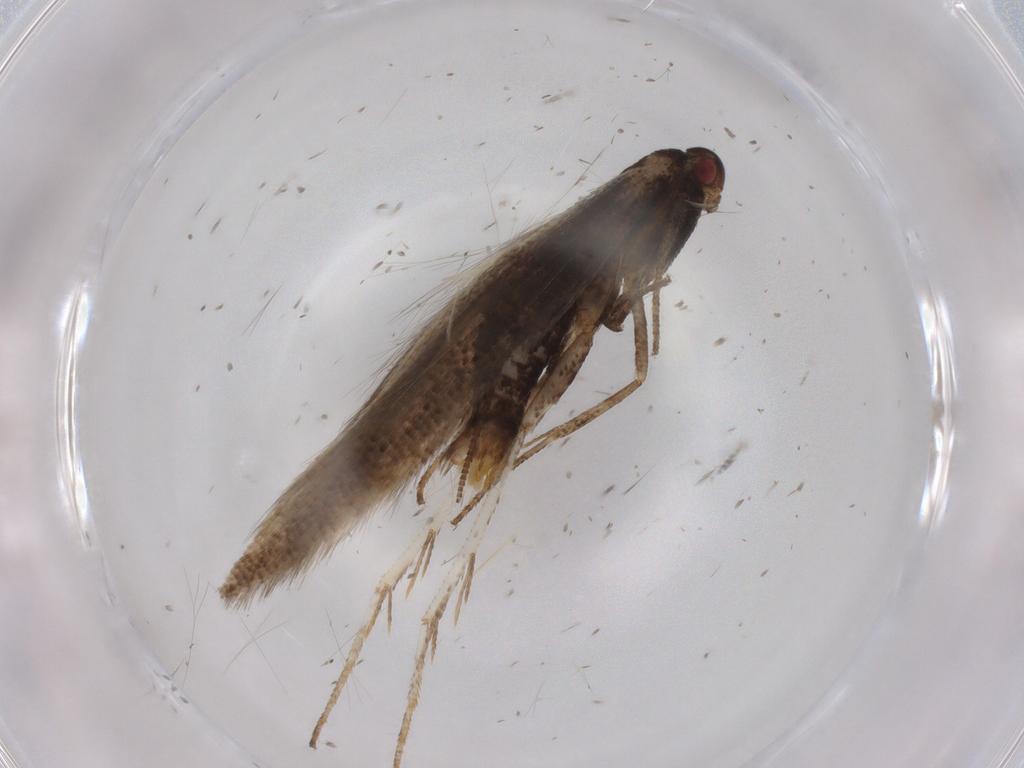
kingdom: Animalia
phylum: Arthropoda
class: Insecta
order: Lepidoptera
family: Momphidae
